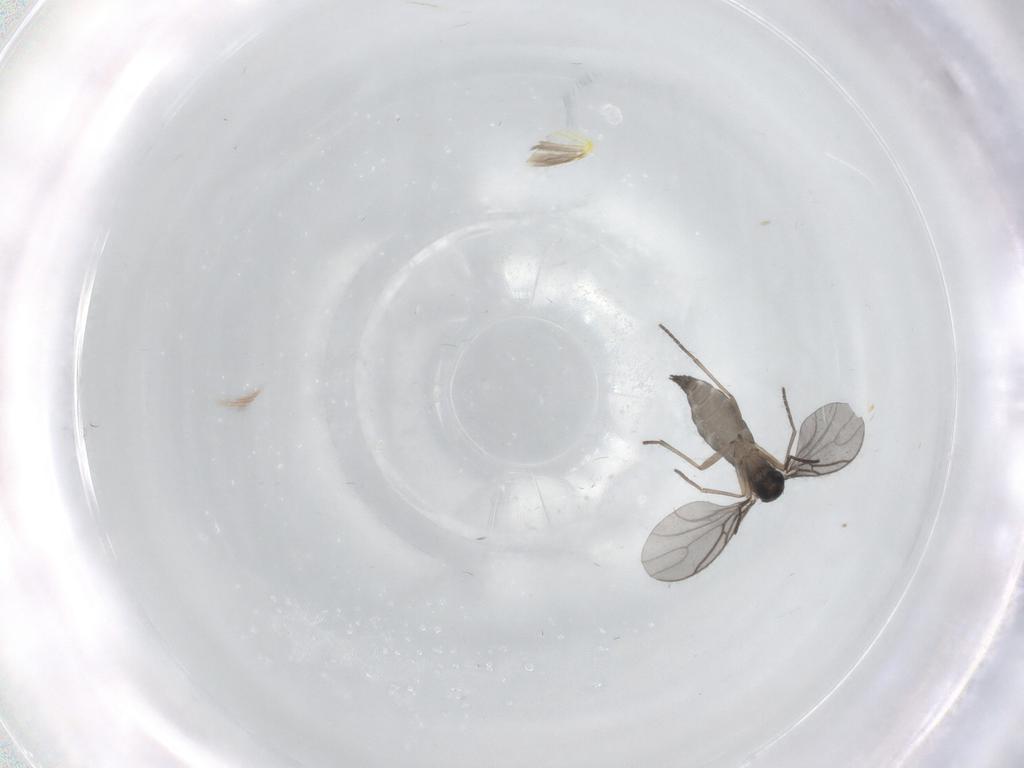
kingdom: Animalia
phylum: Arthropoda
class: Insecta
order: Diptera
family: Sciaridae
